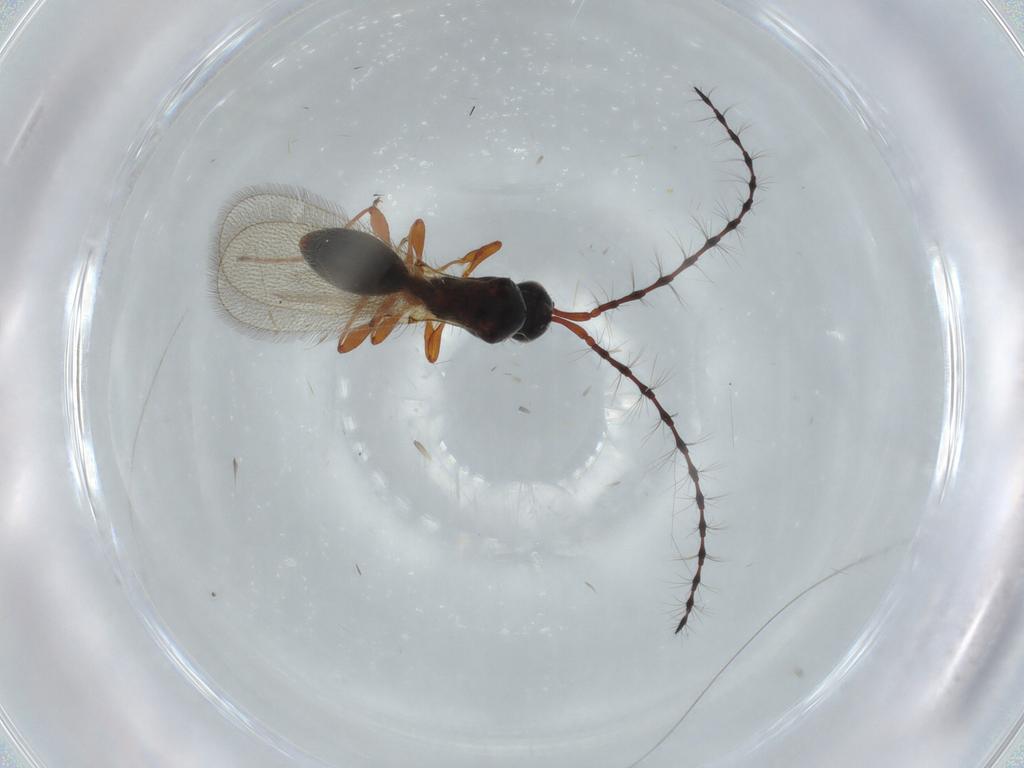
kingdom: Animalia
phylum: Arthropoda
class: Insecta
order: Hymenoptera
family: Diapriidae
